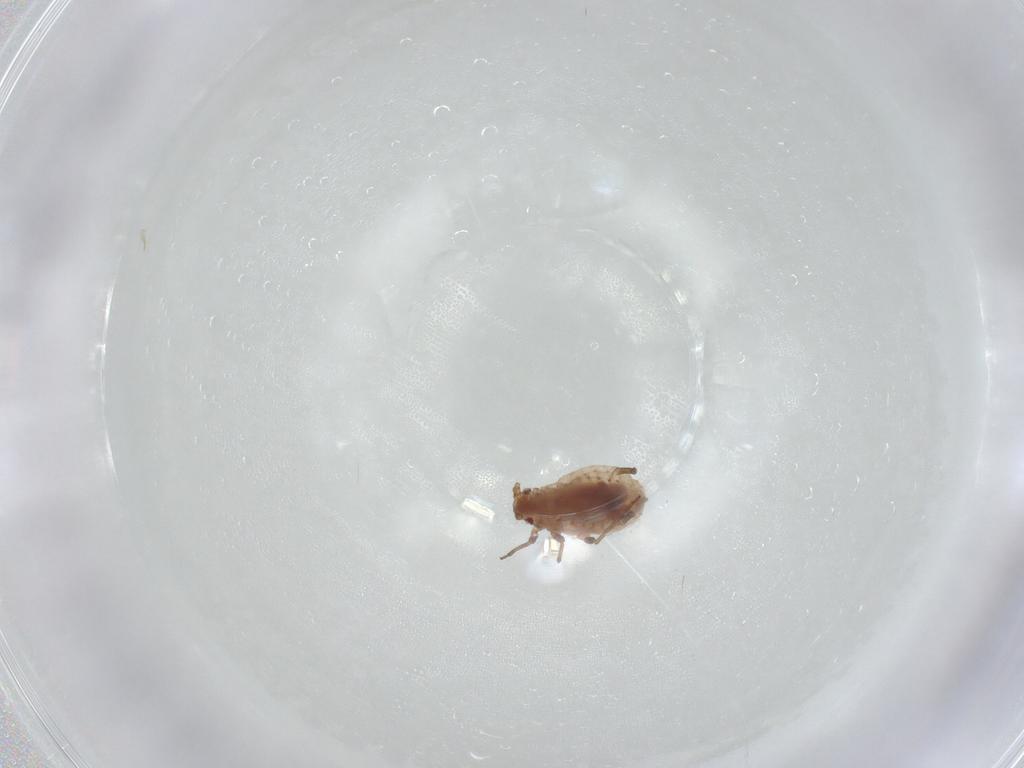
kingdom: Animalia
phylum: Arthropoda
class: Insecta
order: Hemiptera
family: Aphididae
